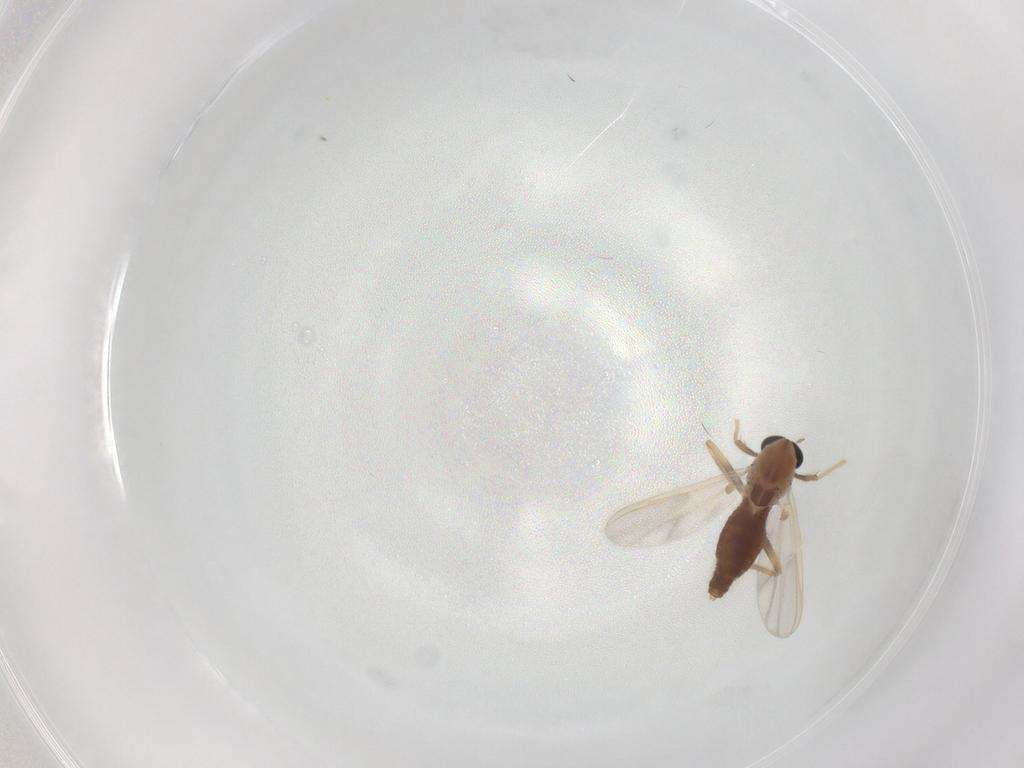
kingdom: Animalia
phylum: Arthropoda
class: Insecta
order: Diptera
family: Chironomidae
